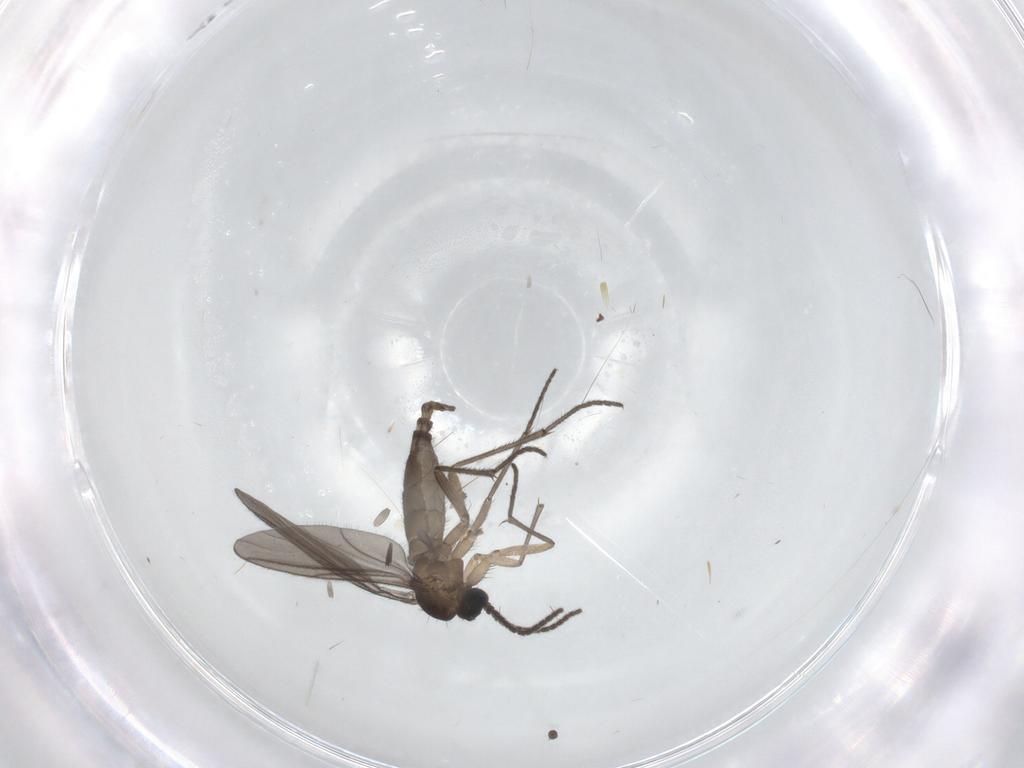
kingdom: Animalia
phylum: Arthropoda
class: Insecta
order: Diptera
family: Sciaridae
